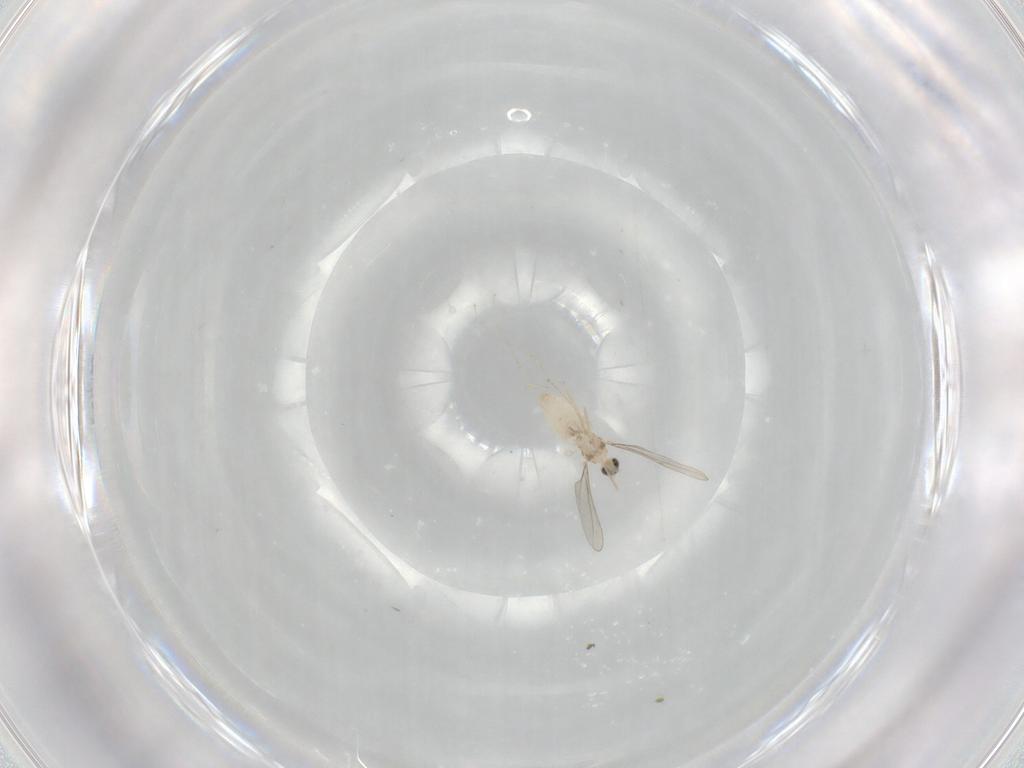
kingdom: Animalia
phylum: Arthropoda
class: Insecta
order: Diptera
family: Cecidomyiidae
